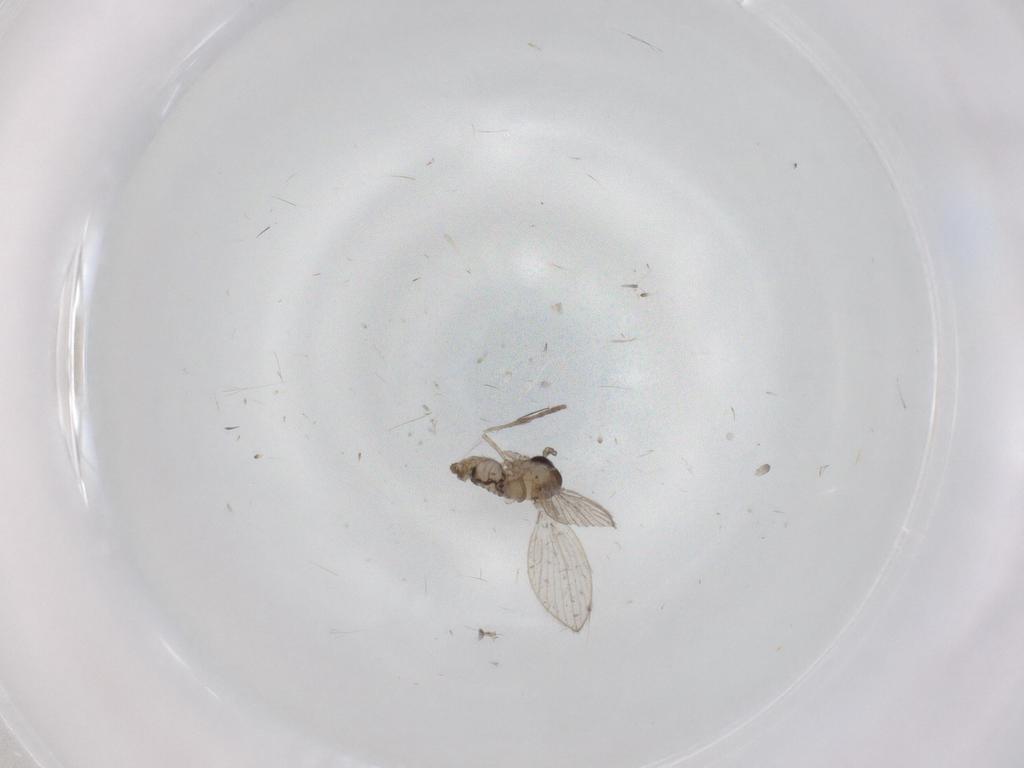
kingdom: Animalia
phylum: Arthropoda
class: Insecta
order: Diptera
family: Psychodidae
